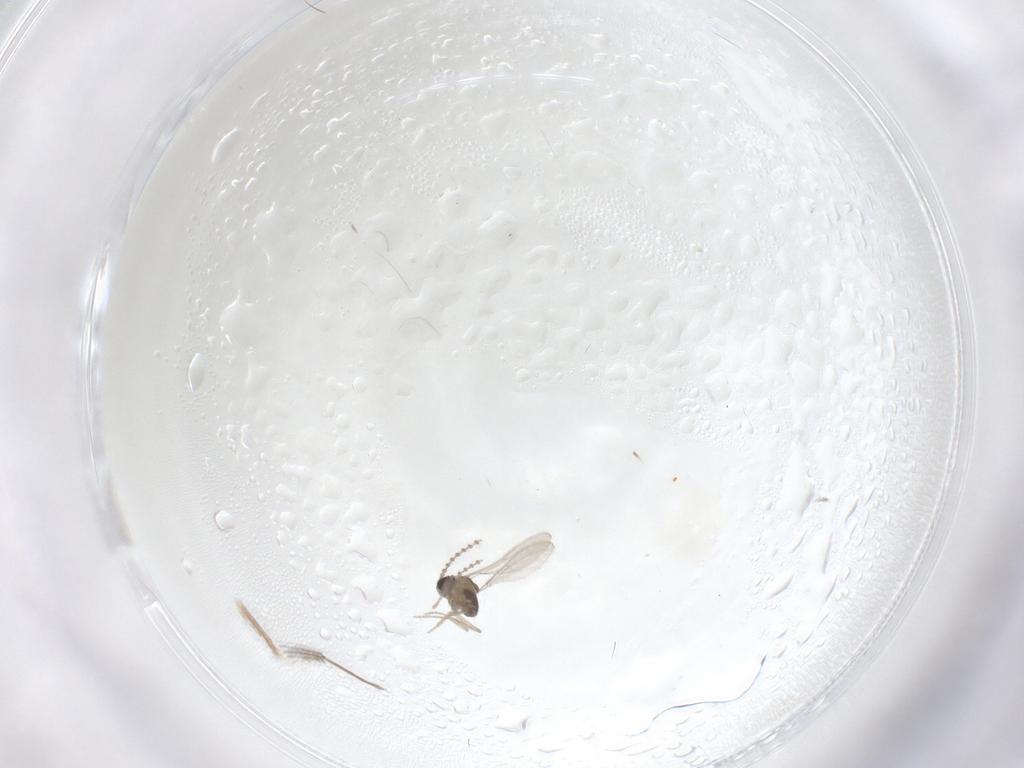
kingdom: Animalia
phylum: Arthropoda
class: Insecta
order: Diptera
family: Cecidomyiidae
